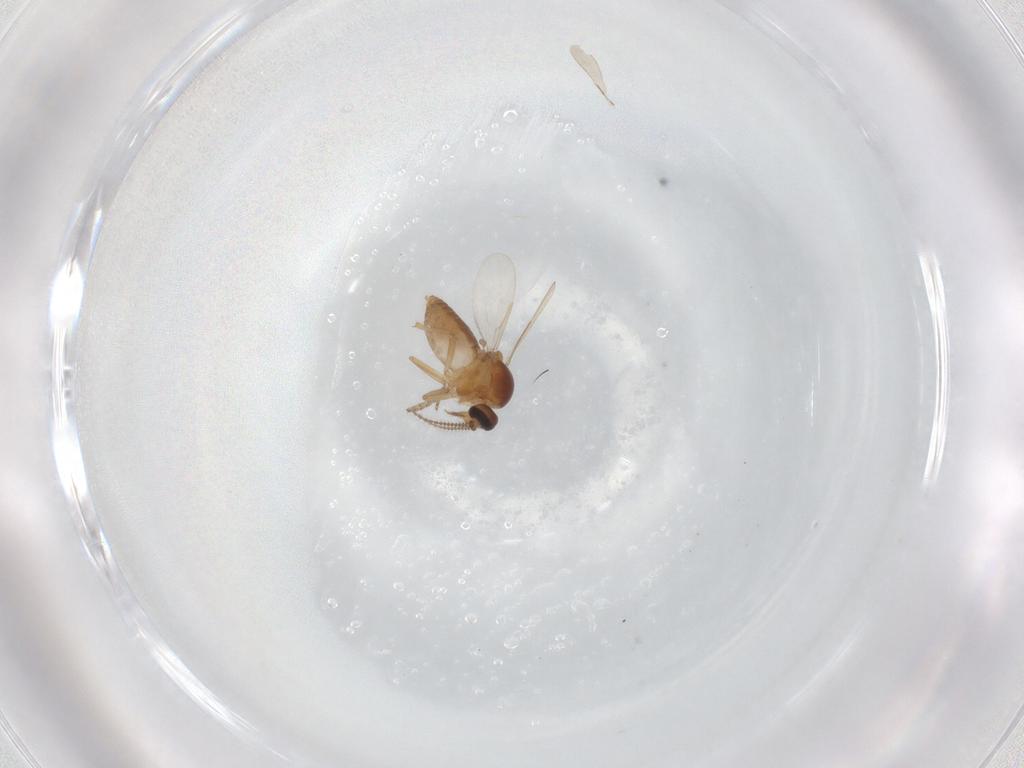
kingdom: Animalia
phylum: Arthropoda
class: Insecta
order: Diptera
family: Ceratopogonidae
